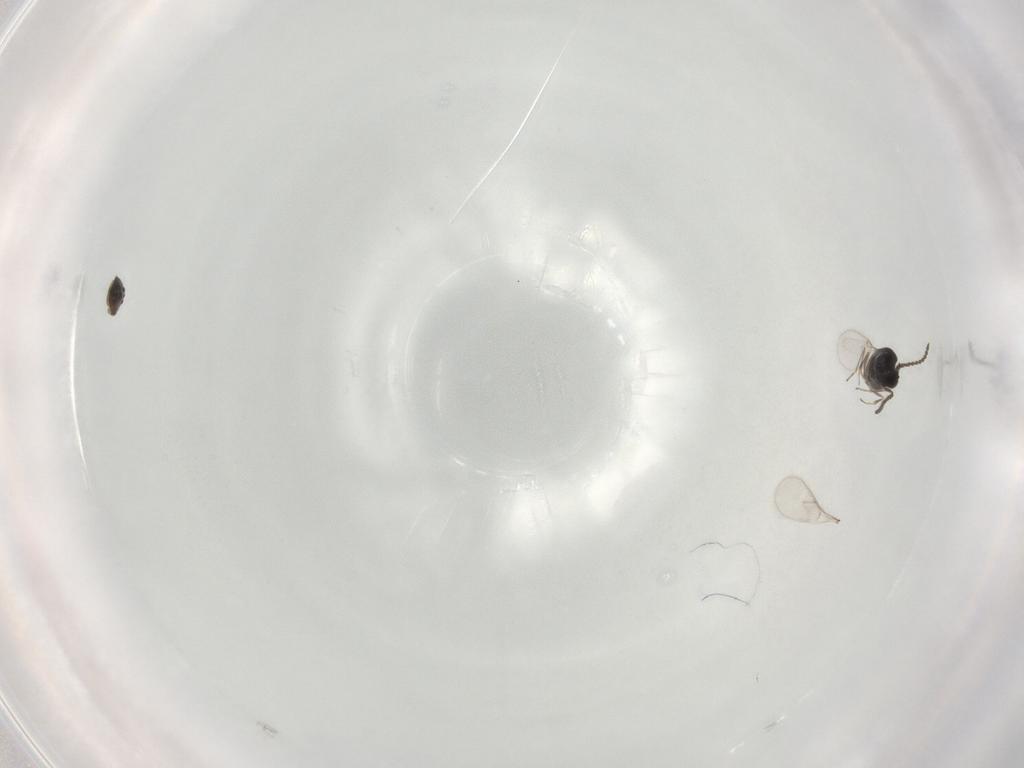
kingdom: Animalia
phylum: Arthropoda
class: Insecta
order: Hymenoptera
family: Scelionidae
